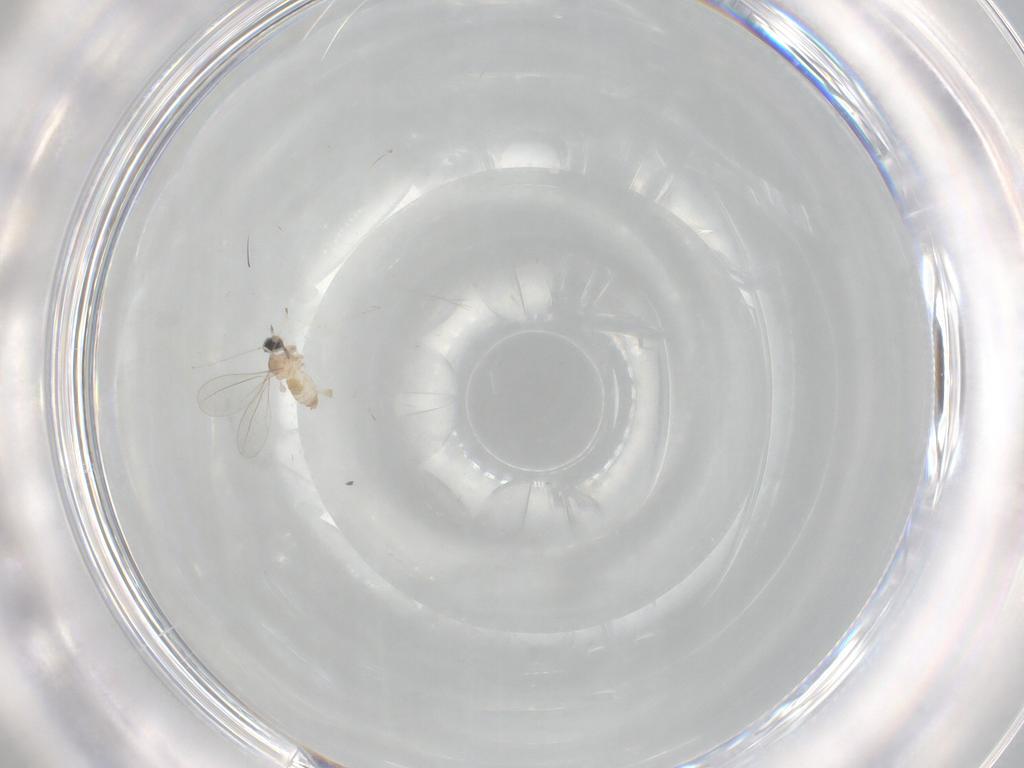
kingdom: Animalia
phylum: Arthropoda
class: Insecta
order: Diptera
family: Cecidomyiidae
